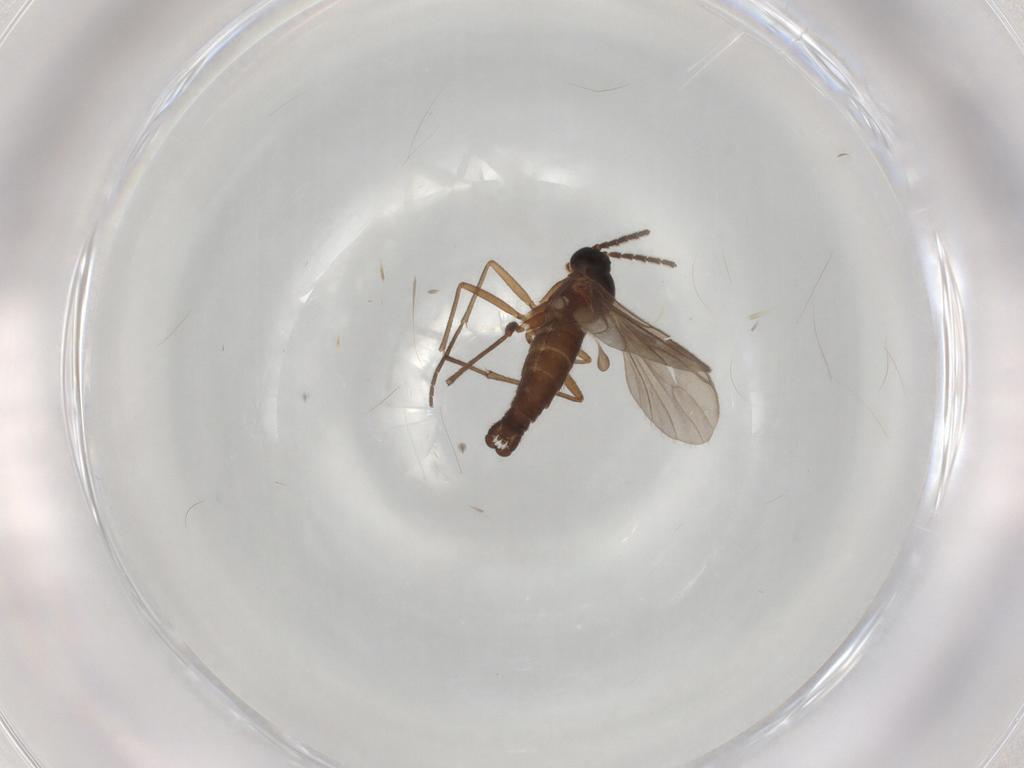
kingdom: Animalia
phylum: Arthropoda
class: Insecta
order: Diptera
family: Sciaridae
